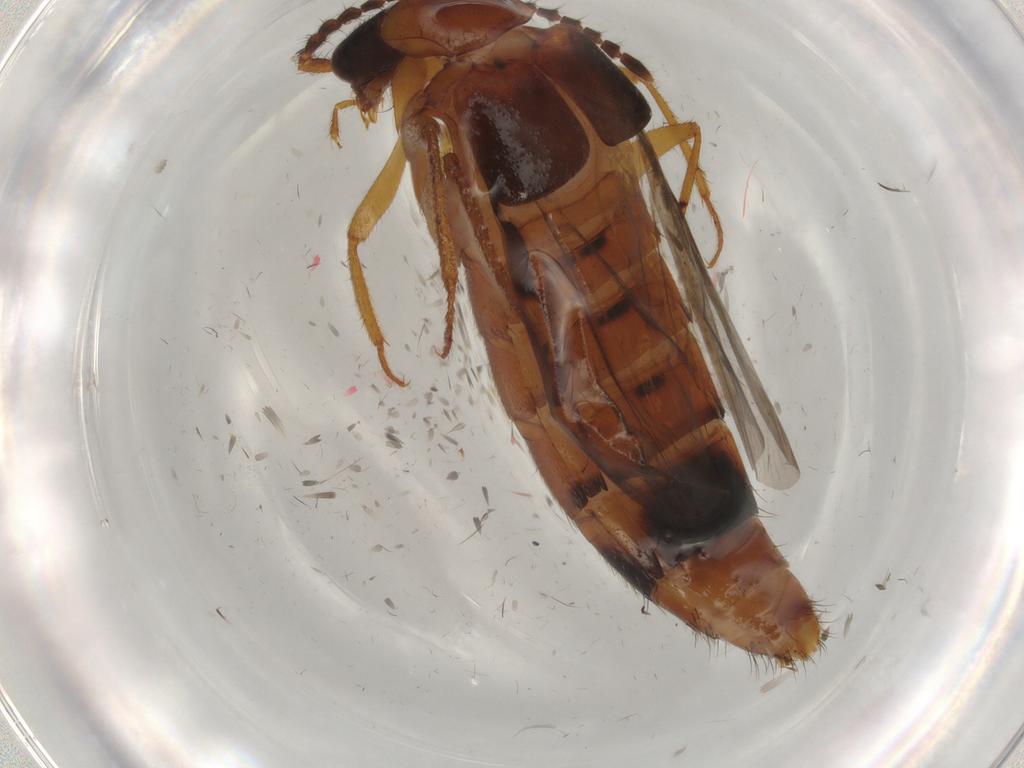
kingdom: Animalia
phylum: Arthropoda
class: Insecta
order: Coleoptera
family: Staphylinidae
